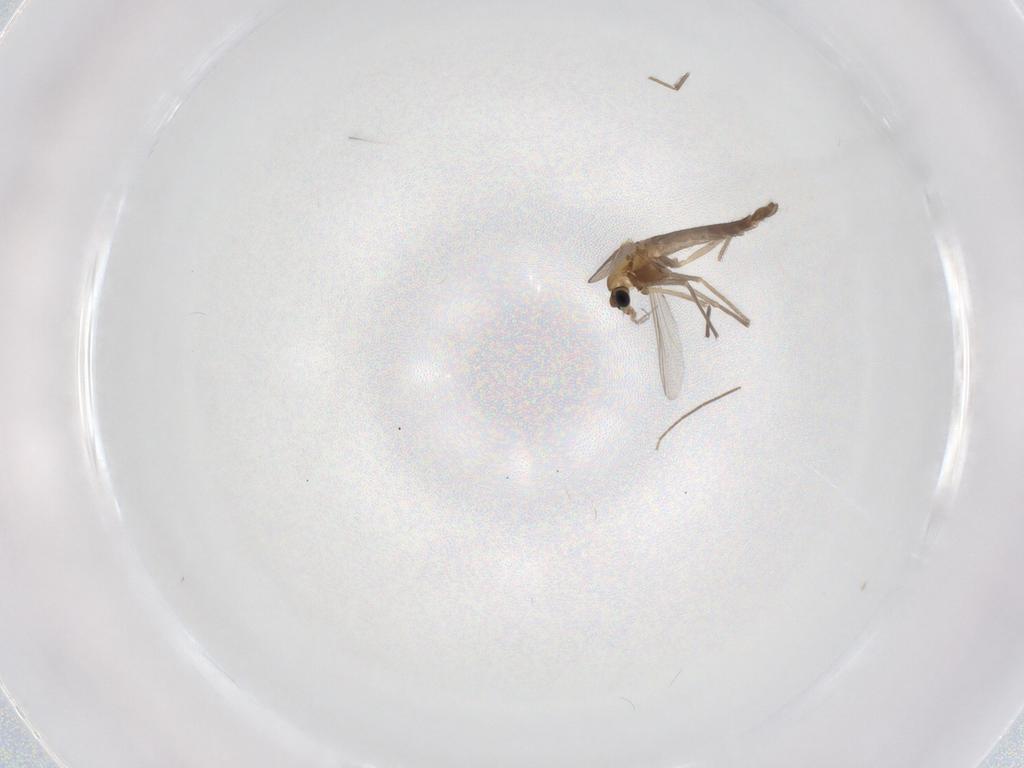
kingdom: Animalia
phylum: Arthropoda
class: Insecta
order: Diptera
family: Chironomidae
